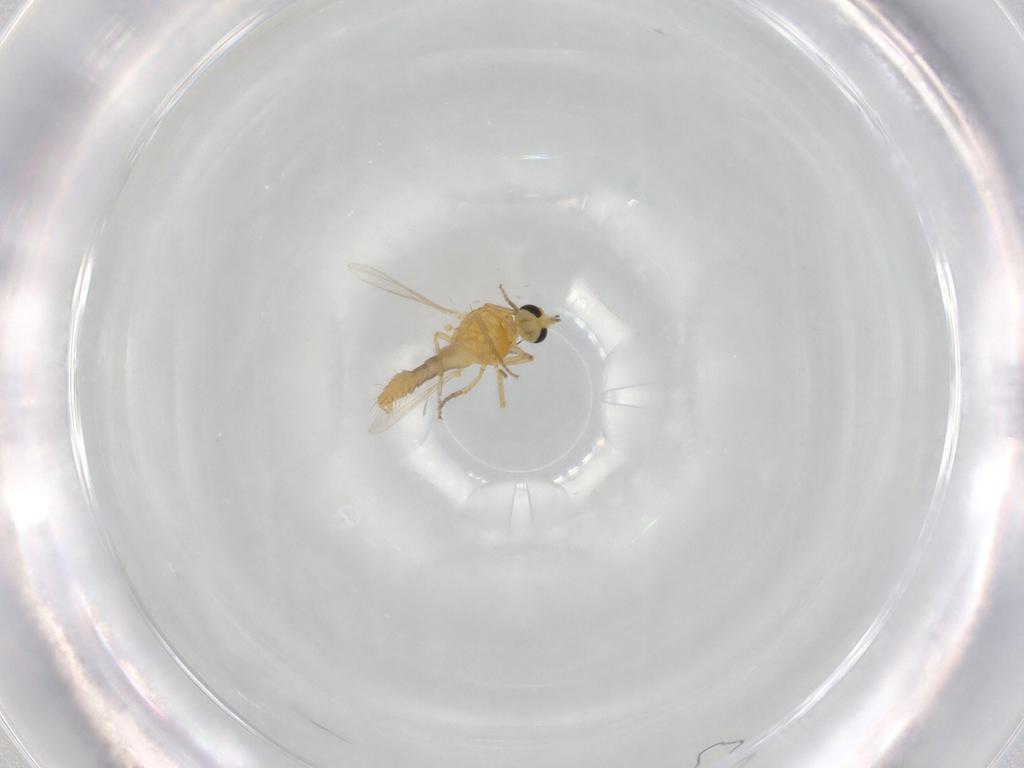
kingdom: Animalia
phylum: Arthropoda
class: Insecta
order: Diptera
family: Ceratopogonidae
